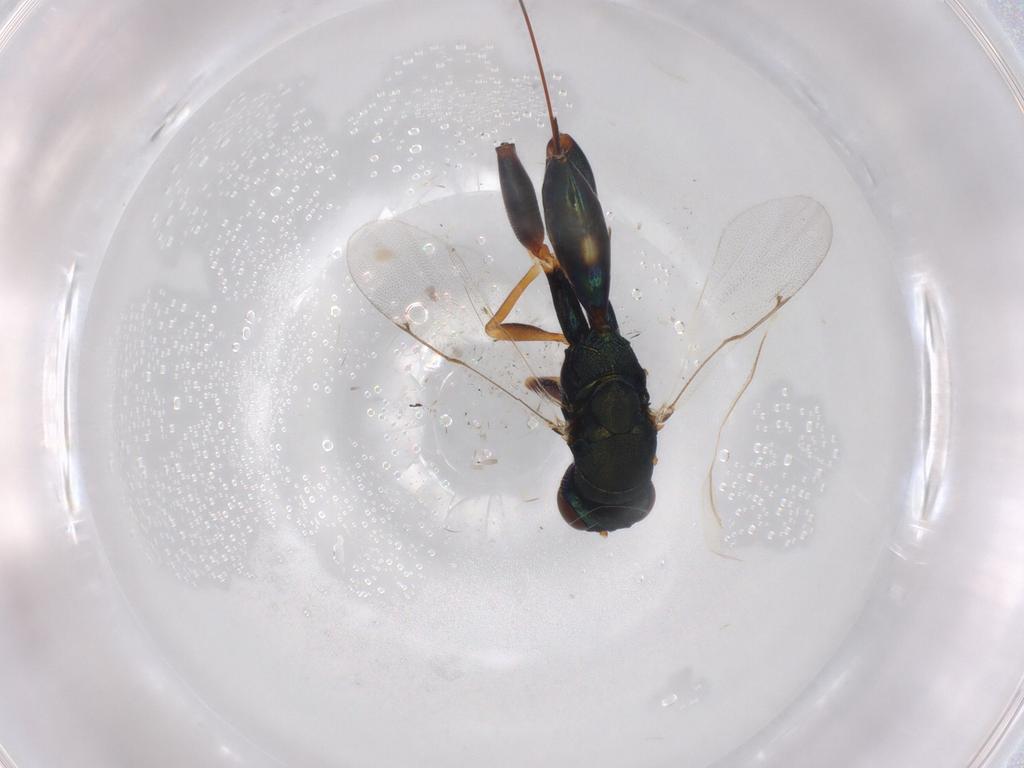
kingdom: Animalia
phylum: Arthropoda
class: Insecta
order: Hymenoptera
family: Torymidae
